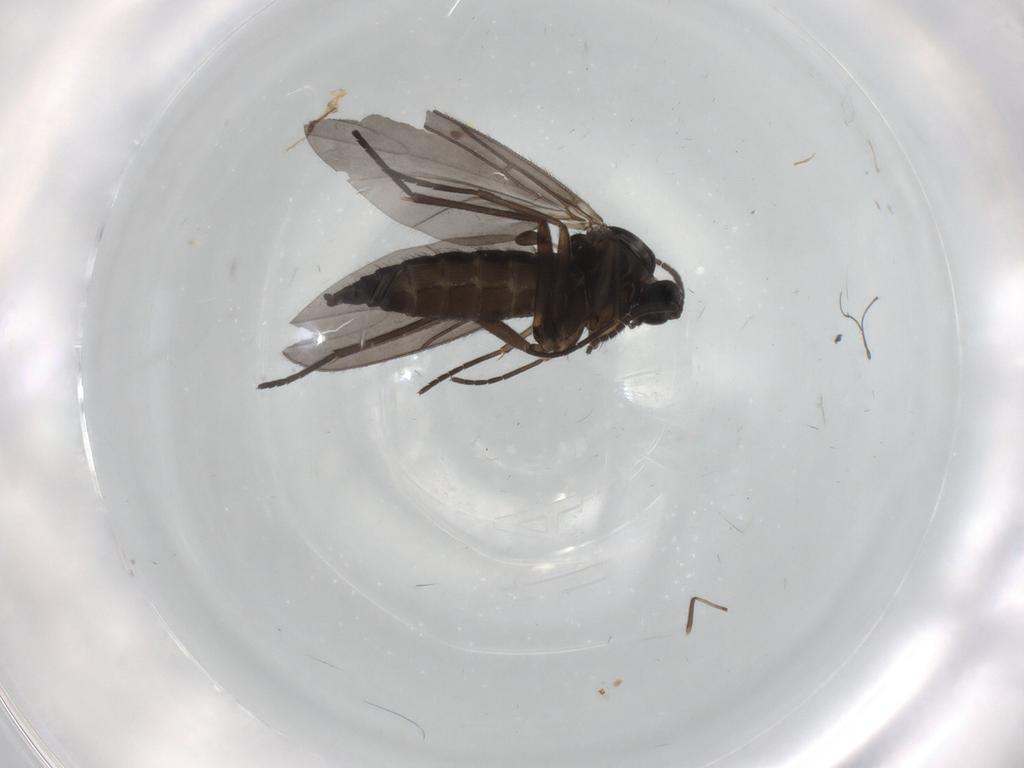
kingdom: Animalia
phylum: Arthropoda
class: Insecta
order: Diptera
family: Sciaridae
